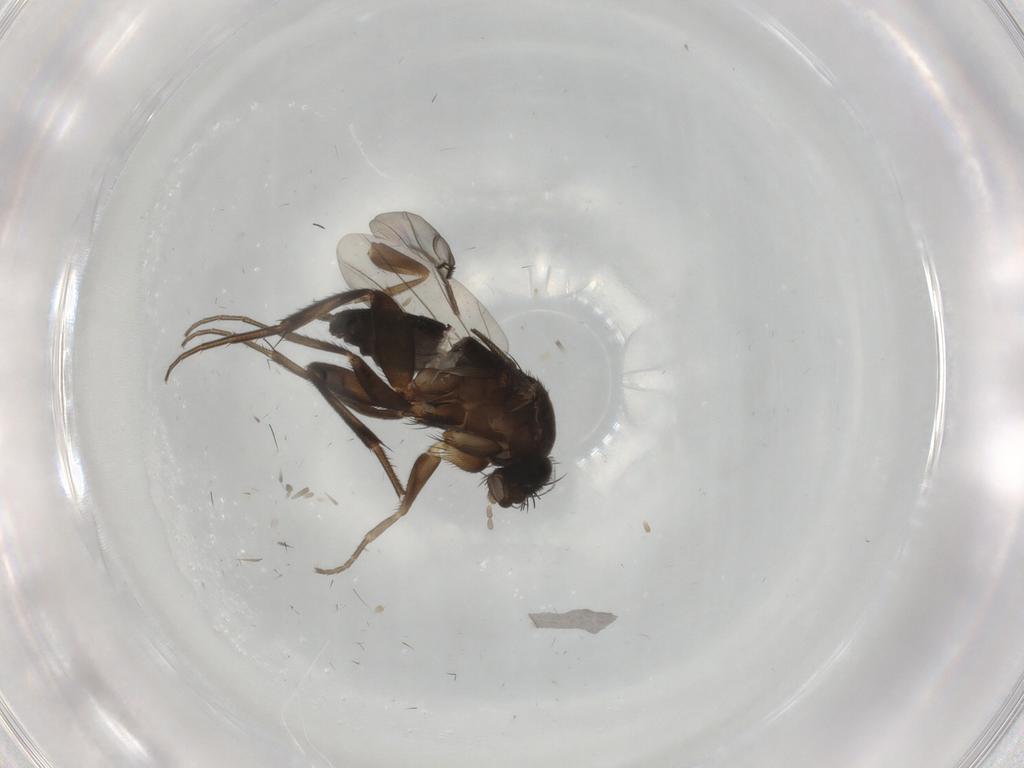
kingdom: Animalia
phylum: Arthropoda
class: Insecta
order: Diptera
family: Phoridae
